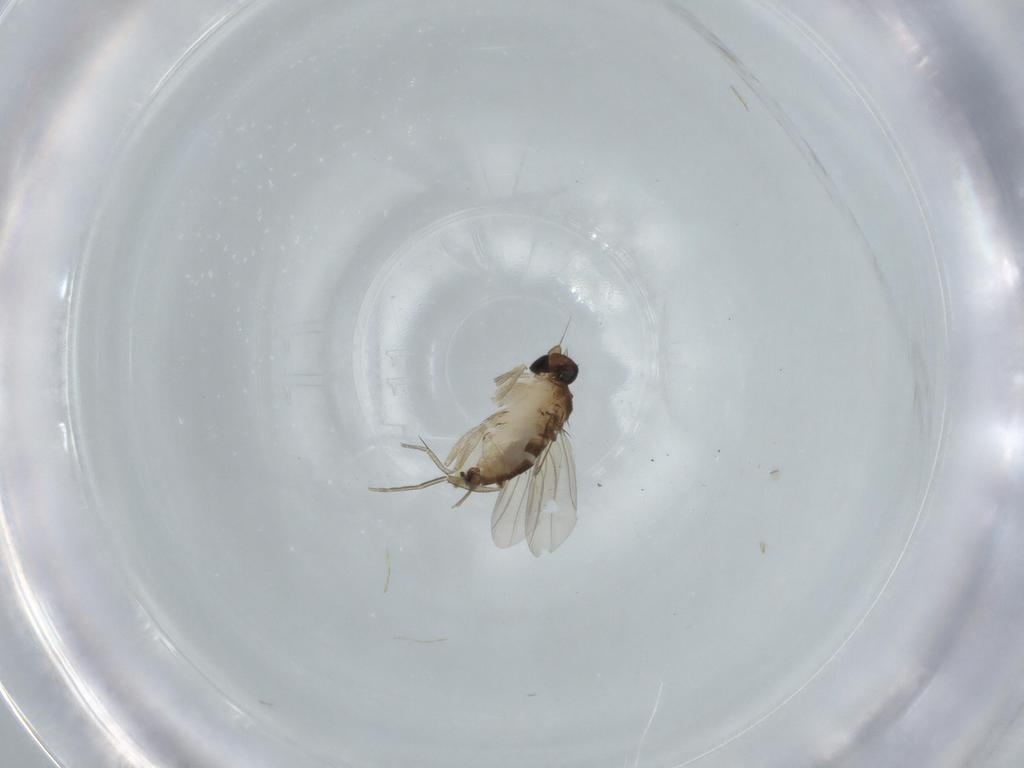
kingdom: Animalia
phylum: Arthropoda
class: Insecta
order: Diptera
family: Phoridae
